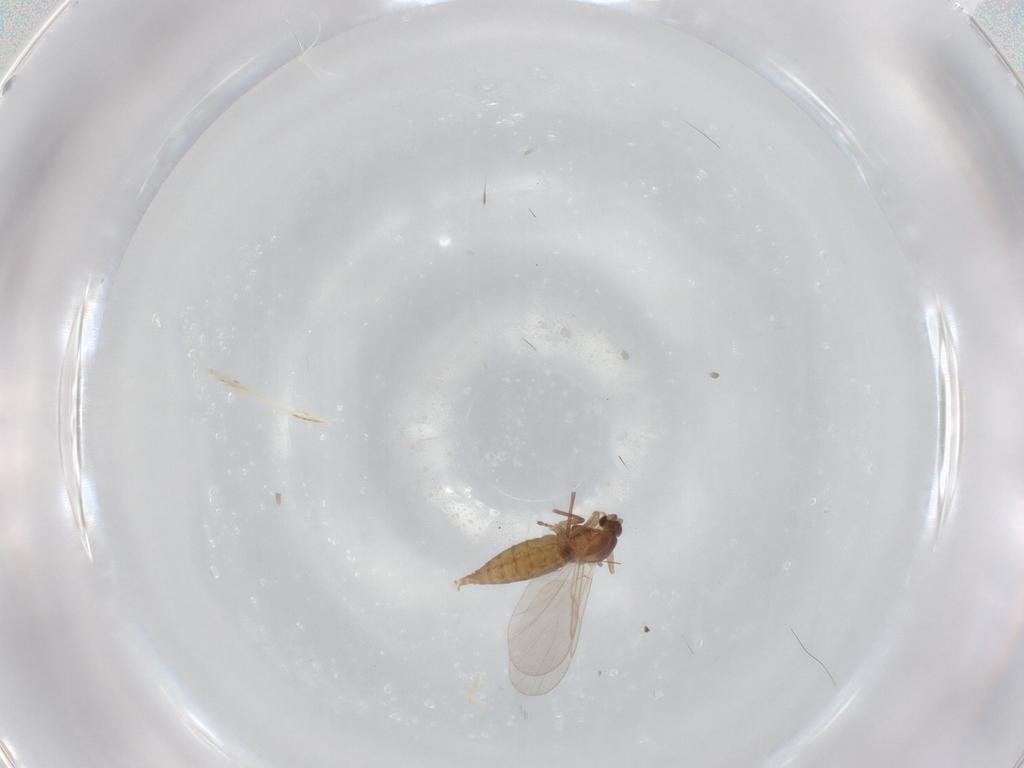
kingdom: Animalia
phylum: Arthropoda
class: Insecta
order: Diptera
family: Cecidomyiidae
